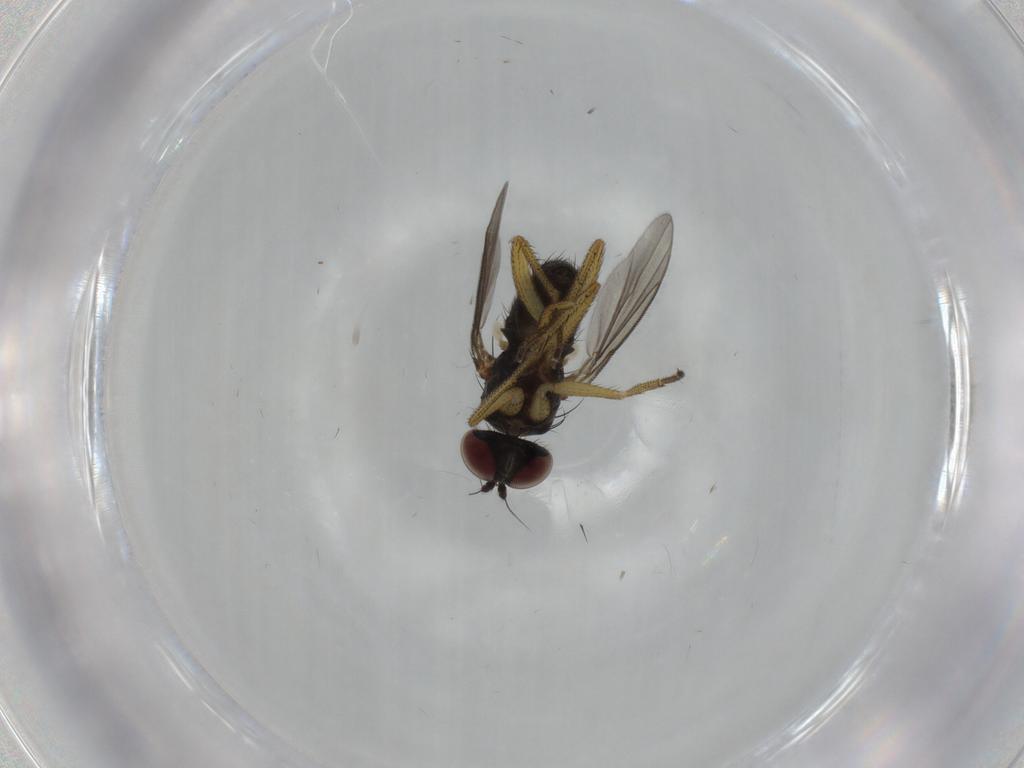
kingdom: Animalia
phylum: Arthropoda
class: Insecta
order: Diptera
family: Dolichopodidae
